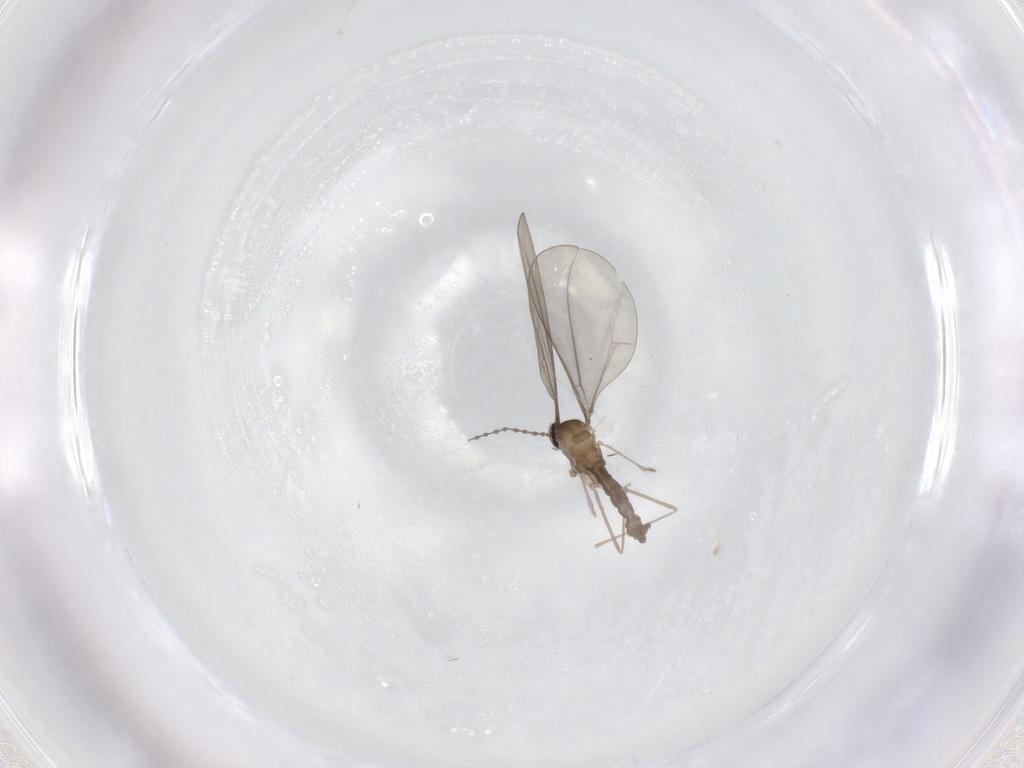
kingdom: Animalia
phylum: Arthropoda
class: Insecta
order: Diptera
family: Cecidomyiidae
